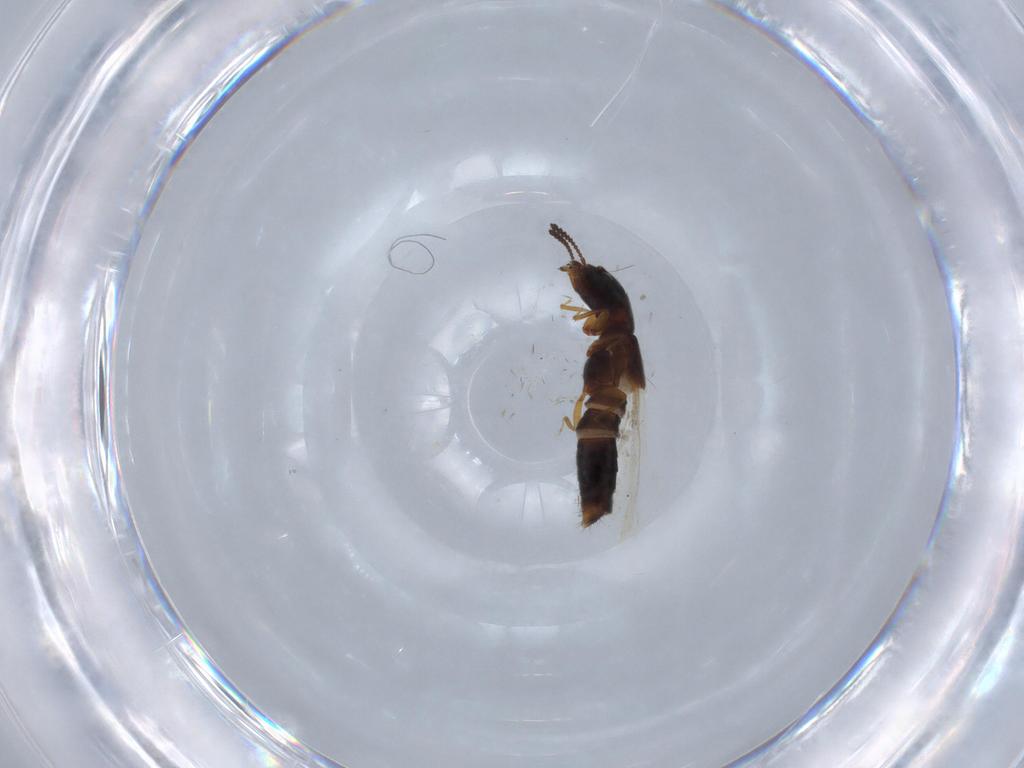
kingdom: Animalia
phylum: Arthropoda
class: Insecta
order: Coleoptera
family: Staphylinidae
